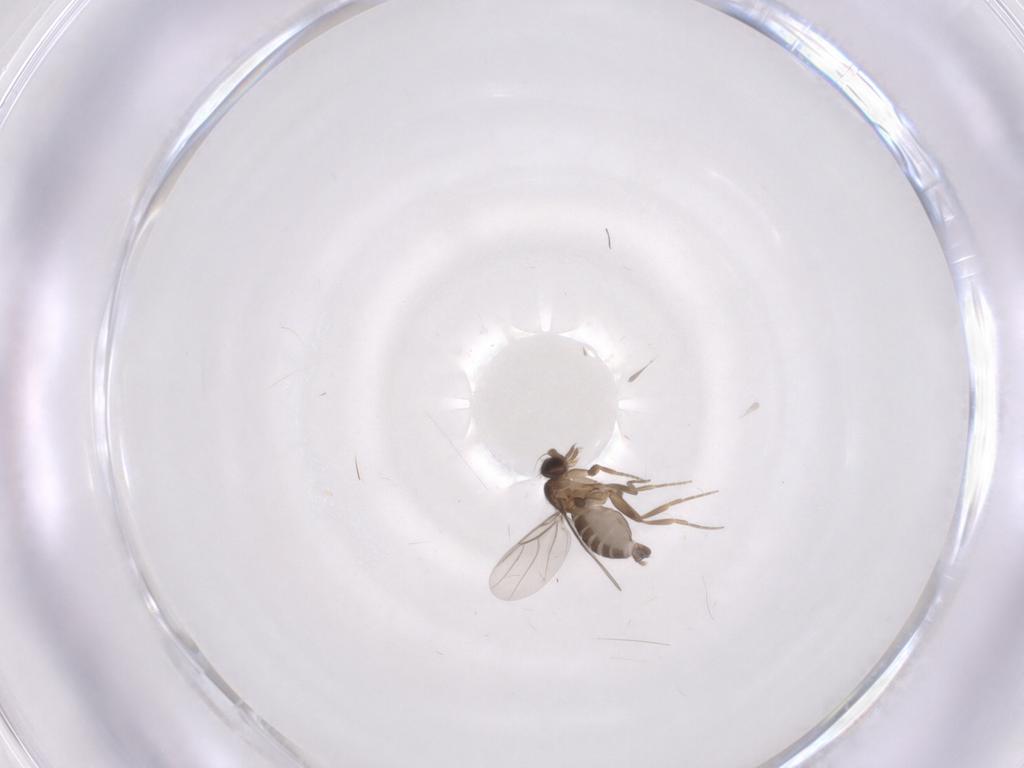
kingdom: Animalia
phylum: Arthropoda
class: Insecta
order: Diptera
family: Phoridae
